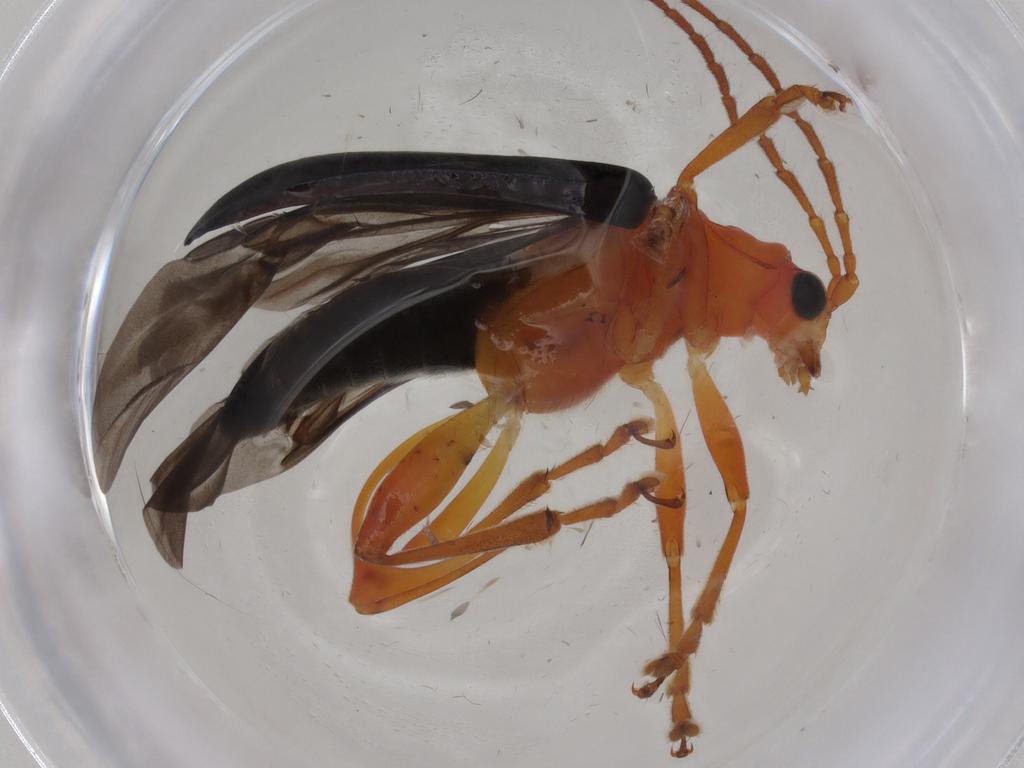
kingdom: Animalia
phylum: Arthropoda
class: Insecta
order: Coleoptera
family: Chrysomelidae
